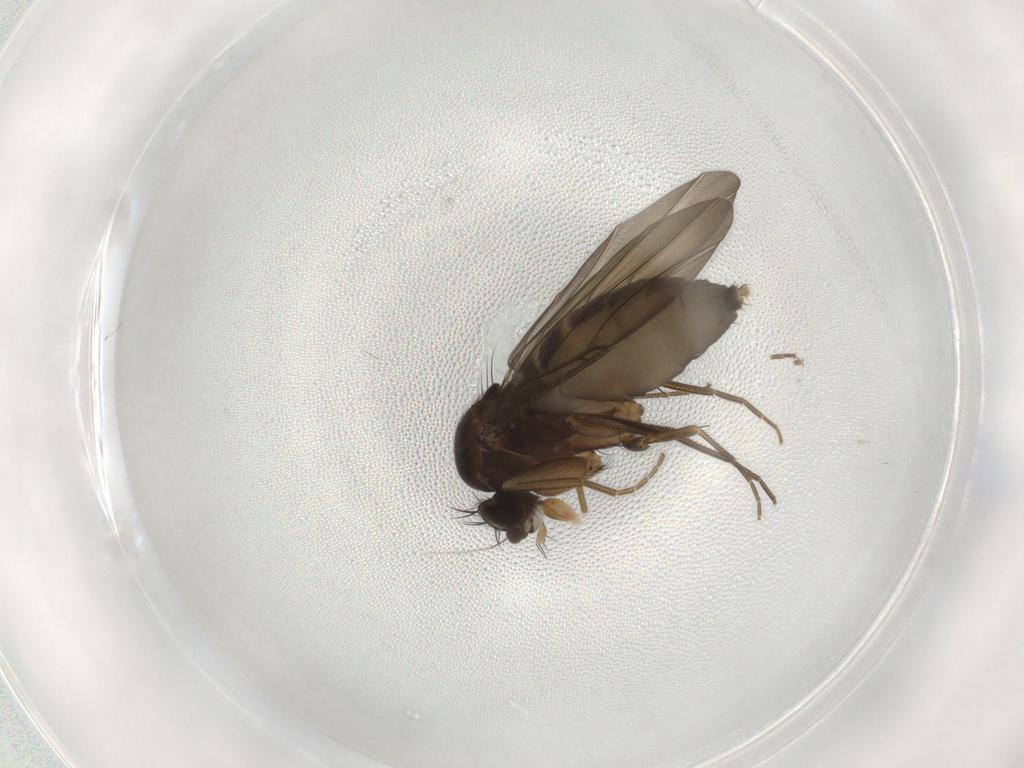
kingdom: Animalia
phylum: Arthropoda
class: Insecta
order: Diptera
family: Phoridae
